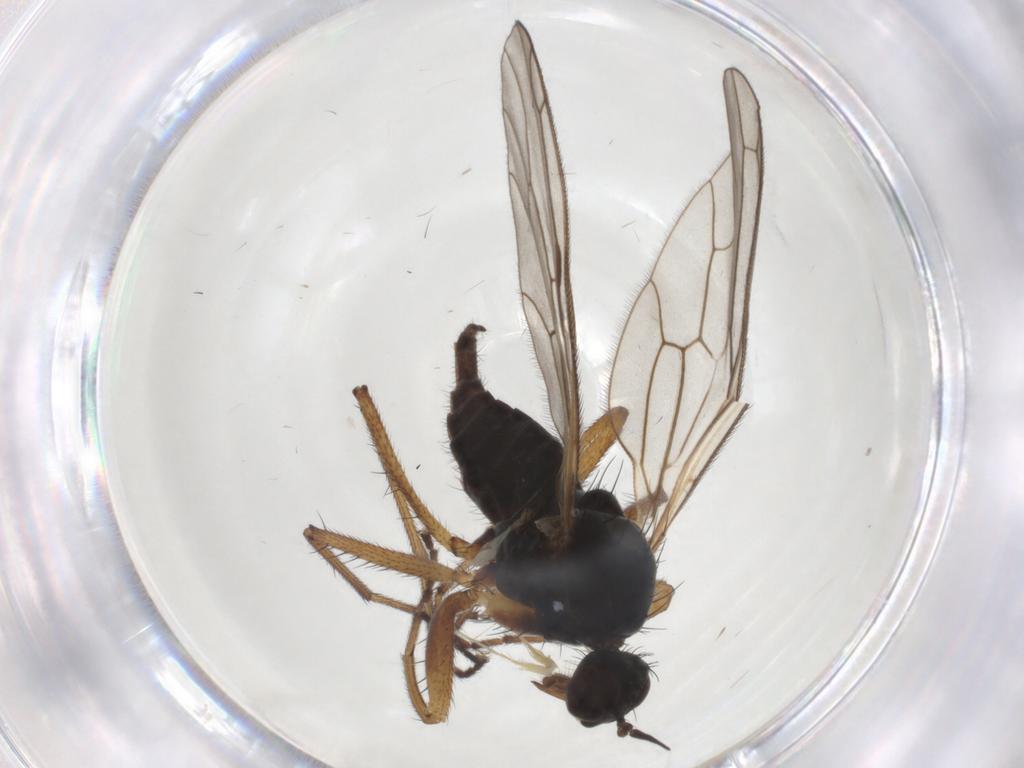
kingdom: Animalia
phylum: Arthropoda
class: Insecta
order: Diptera
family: Empididae
